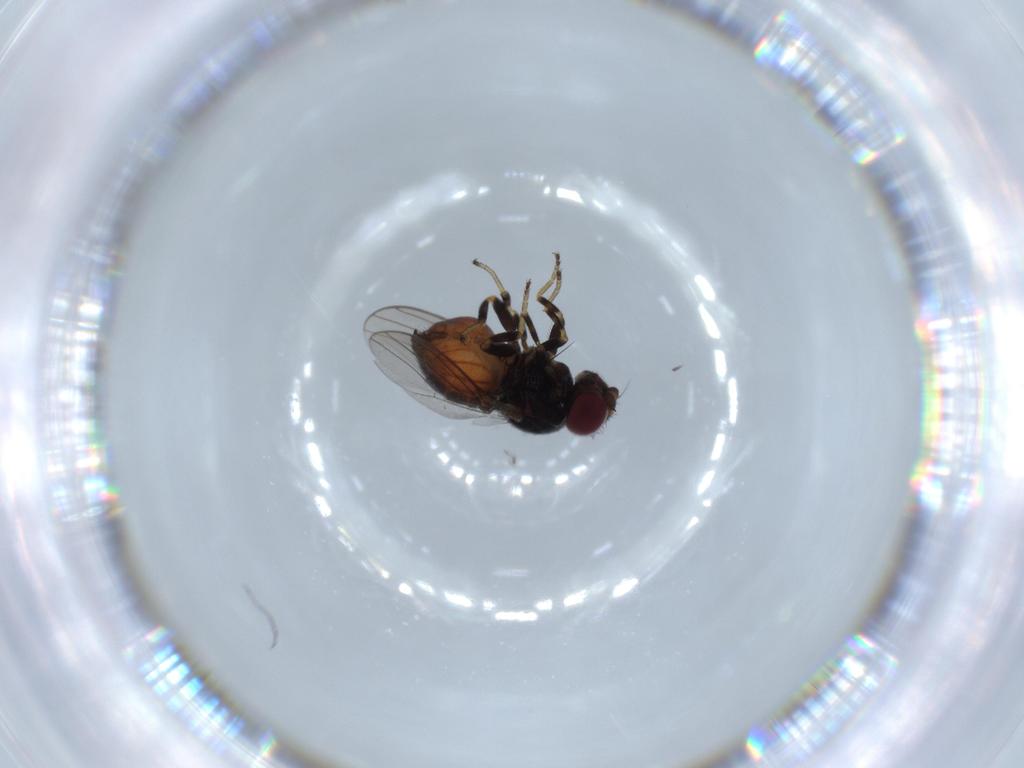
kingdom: Animalia
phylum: Arthropoda
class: Insecta
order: Diptera
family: Chloropidae
